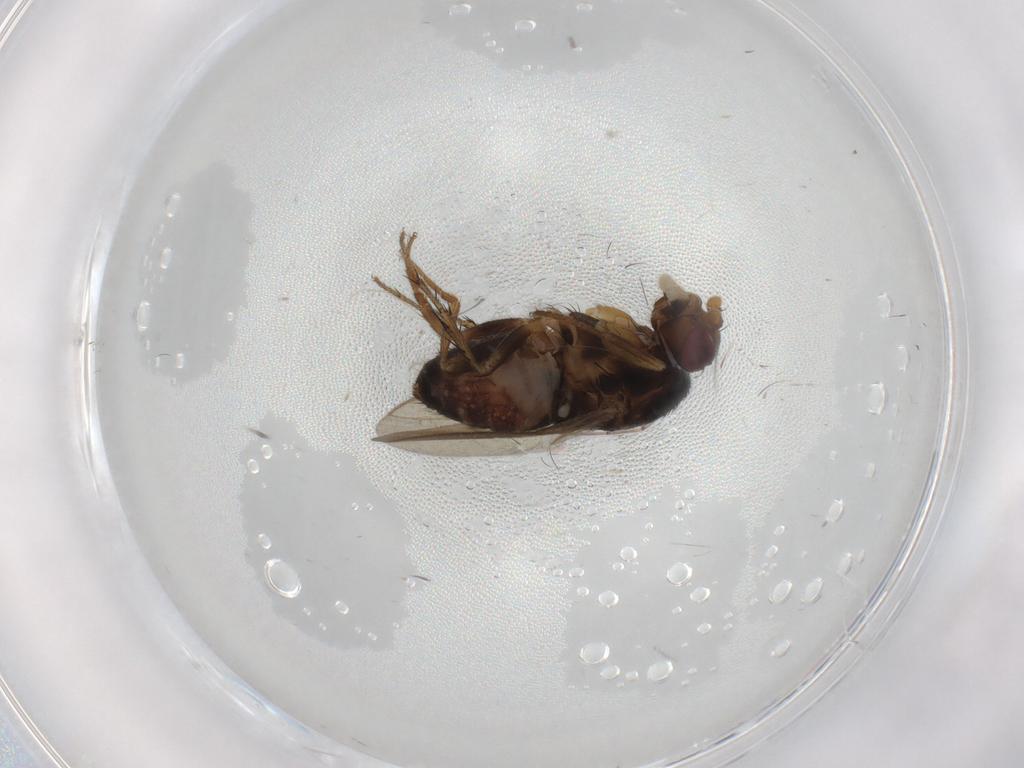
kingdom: Animalia
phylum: Arthropoda
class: Insecta
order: Diptera
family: Sphaeroceridae
